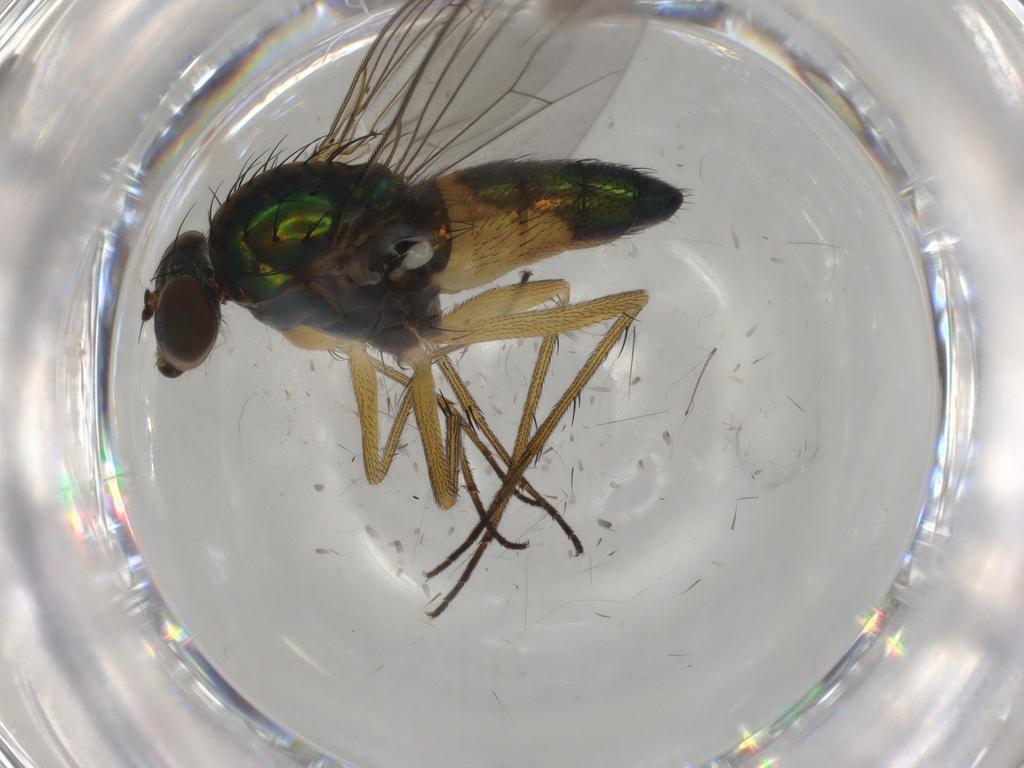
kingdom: Animalia
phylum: Arthropoda
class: Insecta
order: Diptera
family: Dolichopodidae
